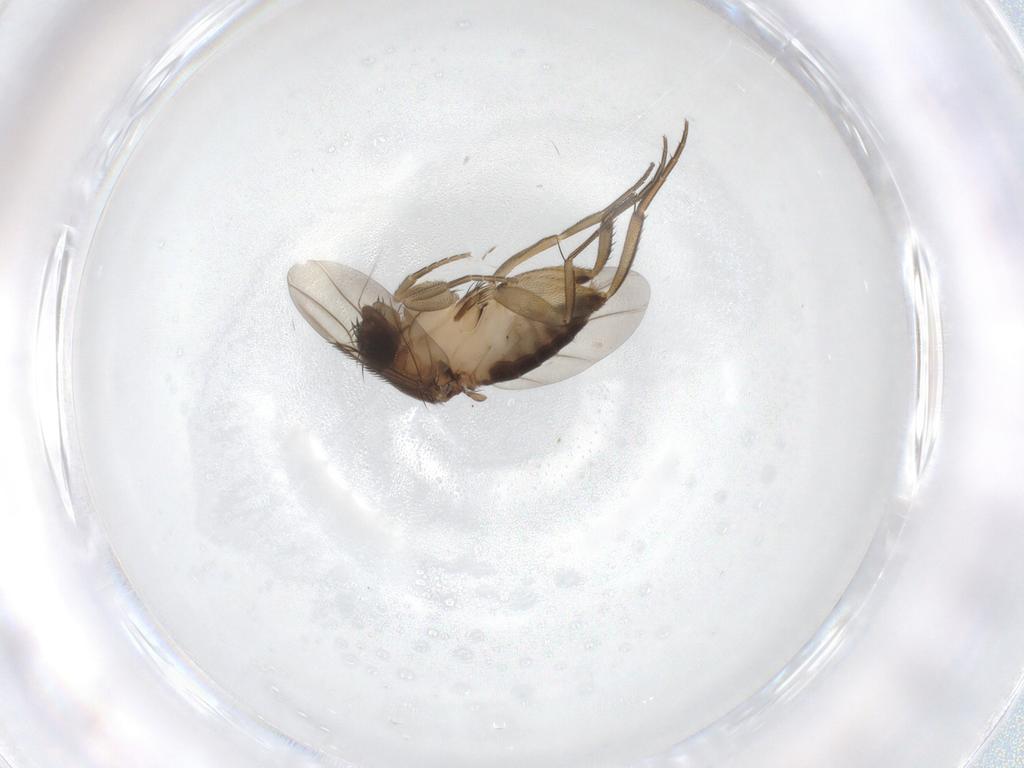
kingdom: Animalia
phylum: Arthropoda
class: Insecta
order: Diptera
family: Phoridae
